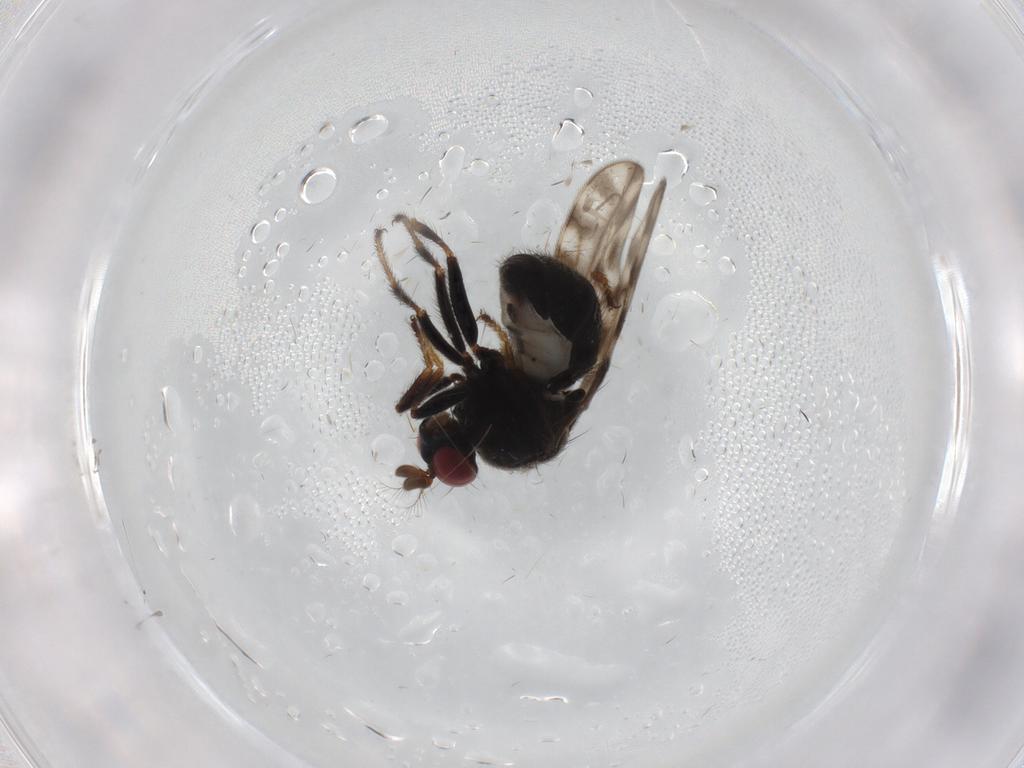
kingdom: Animalia
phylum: Arthropoda
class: Insecta
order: Diptera
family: Ephydridae
